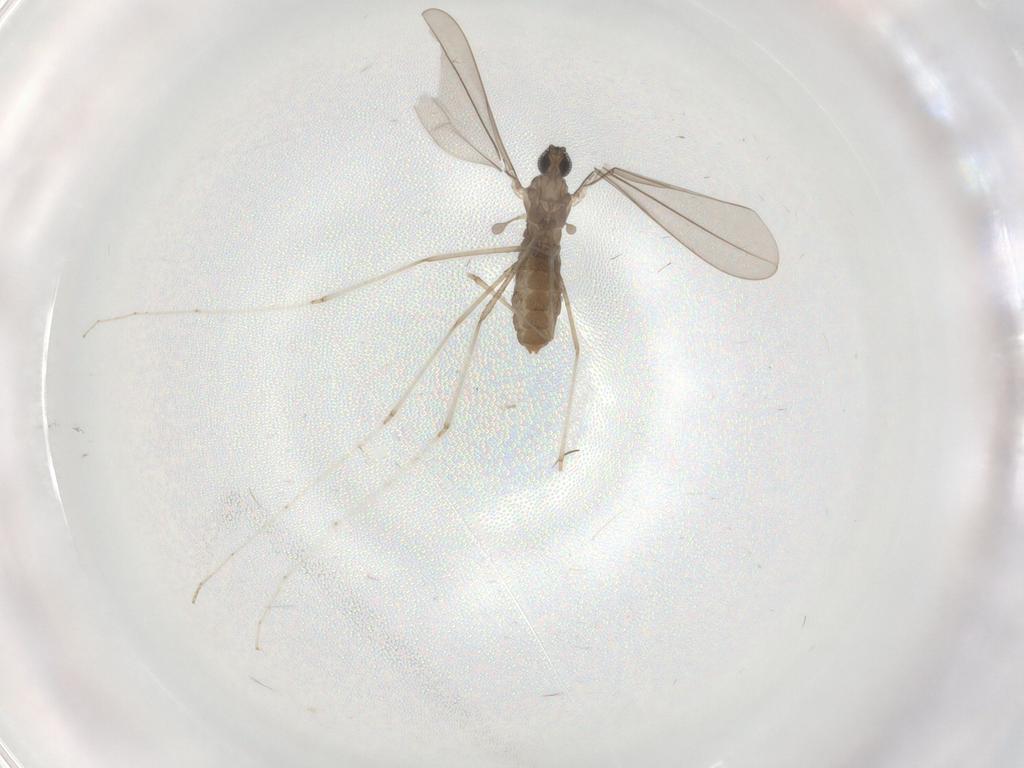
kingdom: Animalia
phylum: Arthropoda
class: Insecta
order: Diptera
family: Cecidomyiidae
